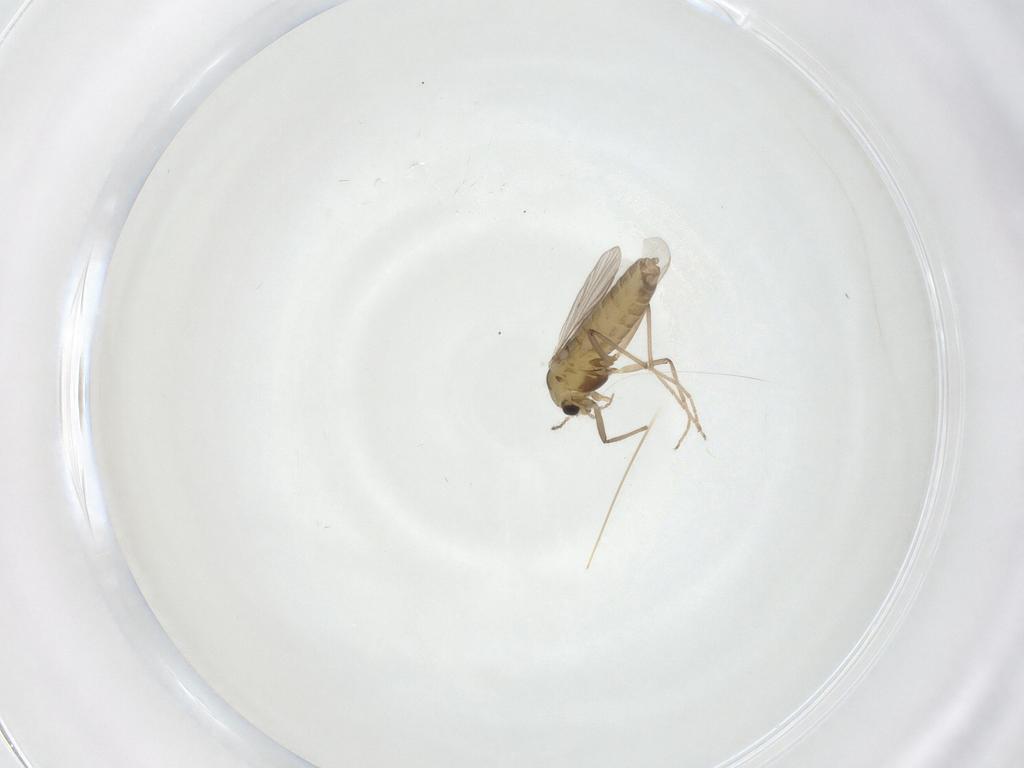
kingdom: Animalia
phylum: Arthropoda
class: Insecta
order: Diptera
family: Chironomidae
